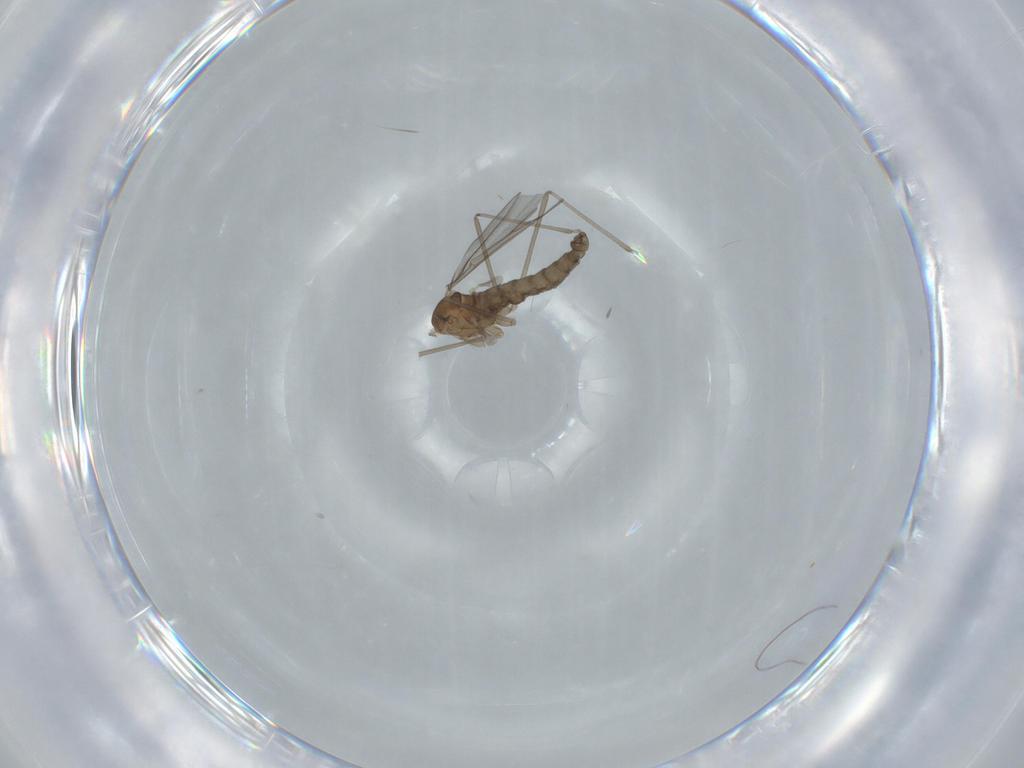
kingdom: Animalia
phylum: Arthropoda
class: Insecta
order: Diptera
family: Cecidomyiidae
